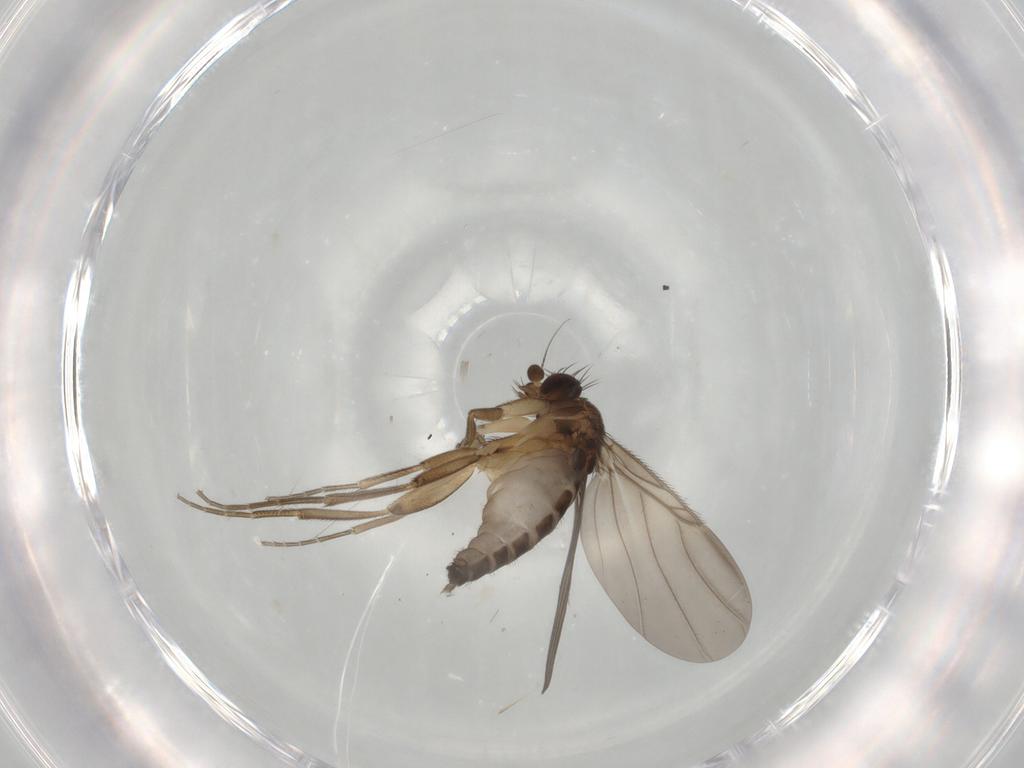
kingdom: Animalia
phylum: Arthropoda
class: Insecta
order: Diptera
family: Phoridae
